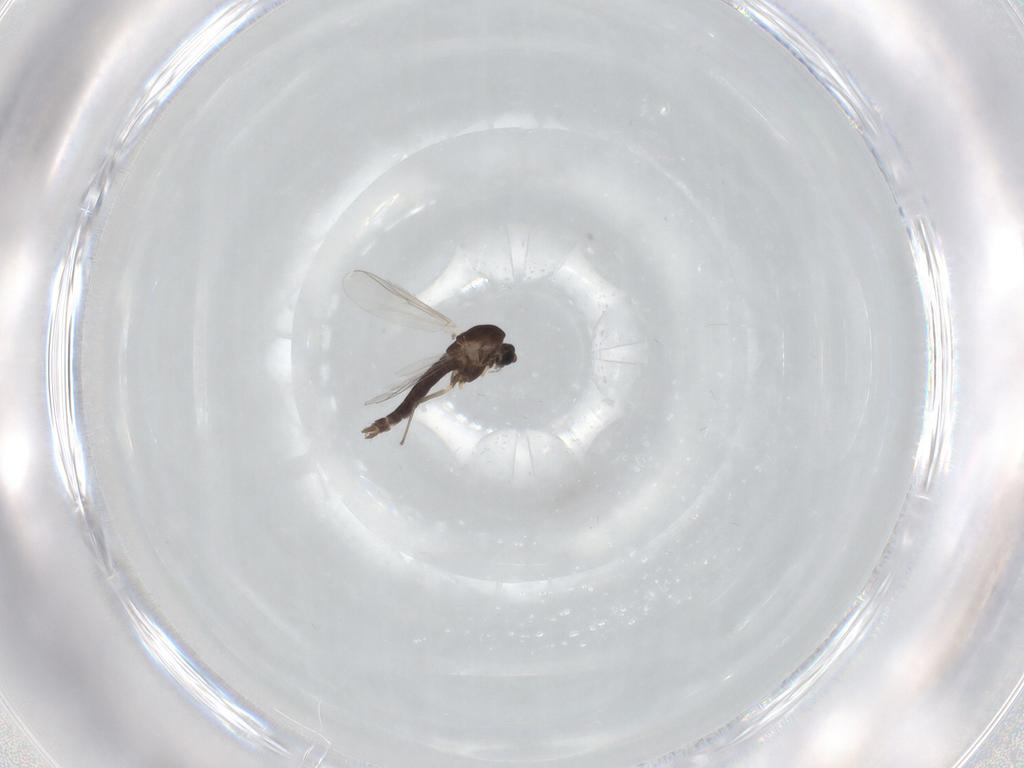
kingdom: Animalia
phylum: Arthropoda
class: Insecta
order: Diptera
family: Chironomidae
